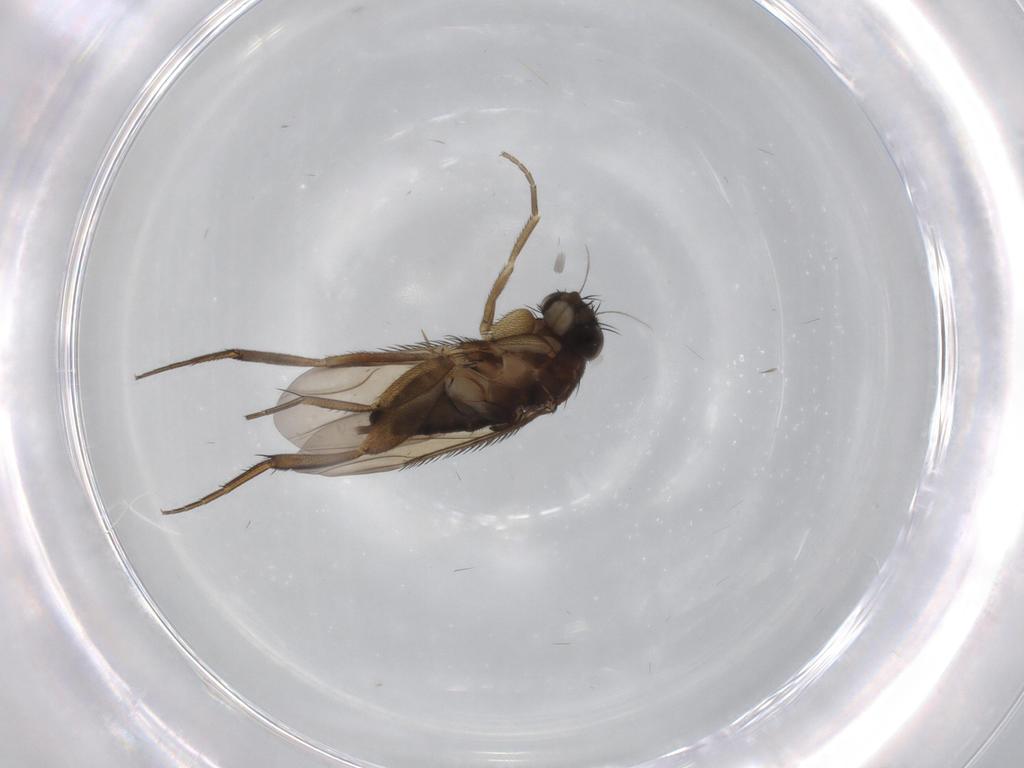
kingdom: Animalia
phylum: Arthropoda
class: Insecta
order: Diptera
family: Phoridae
